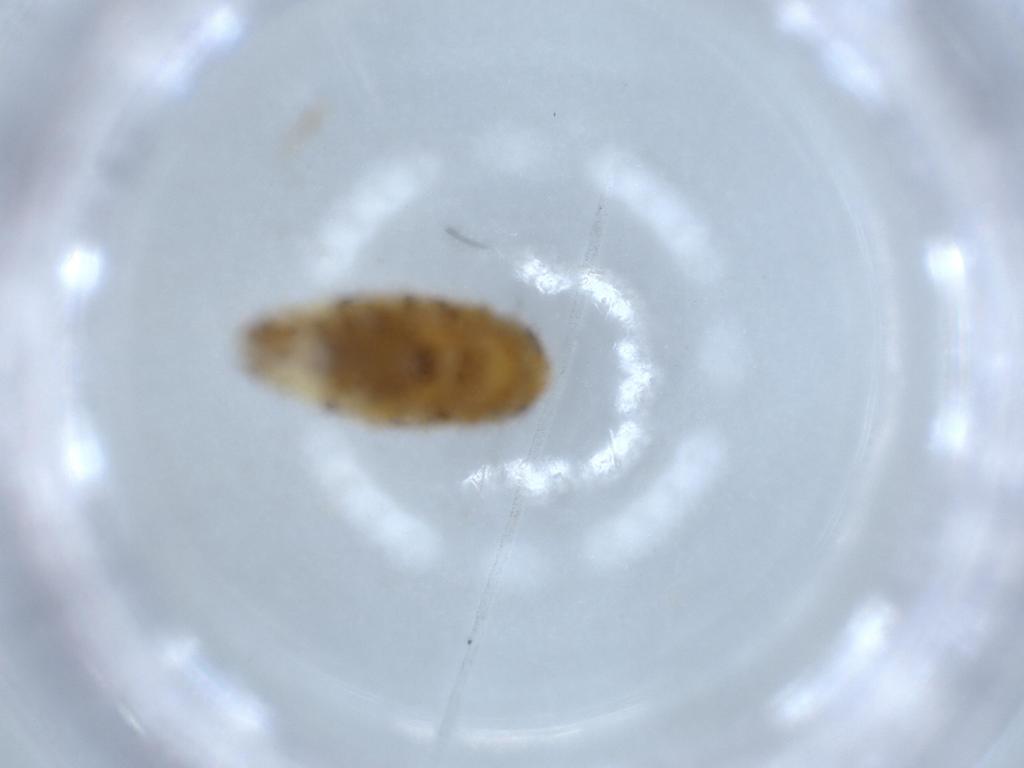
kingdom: Animalia
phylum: Arthropoda
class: Insecta
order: Hemiptera
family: Cicadellidae
